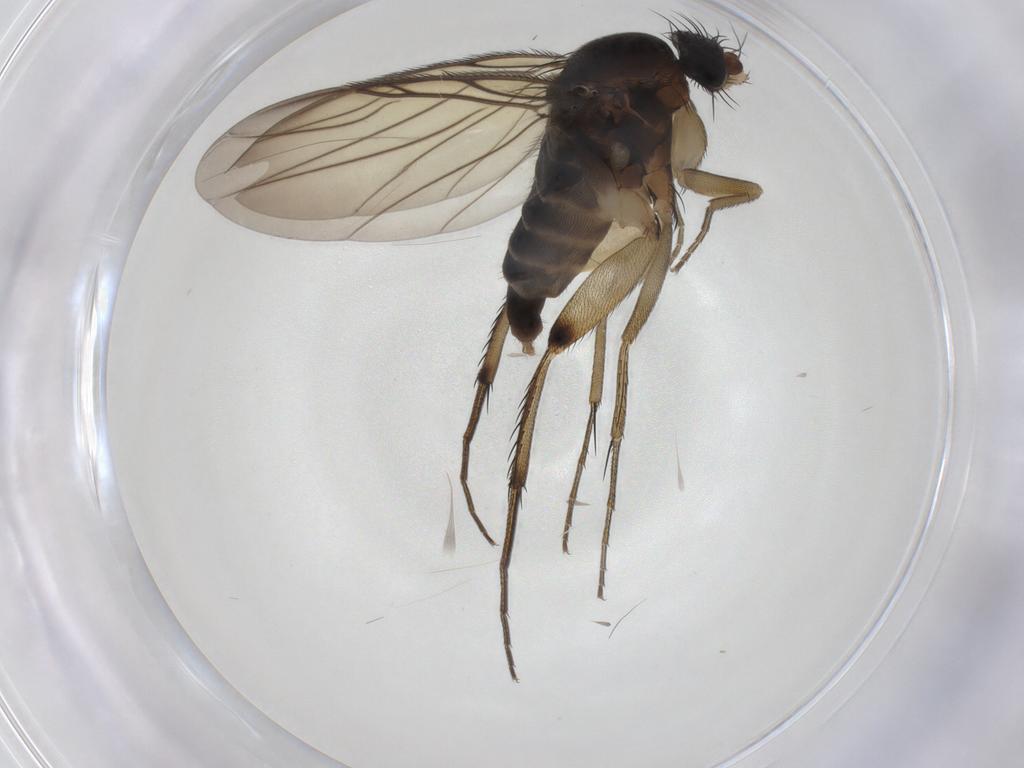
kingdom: Animalia
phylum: Arthropoda
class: Insecta
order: Diptera
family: Phoridae
